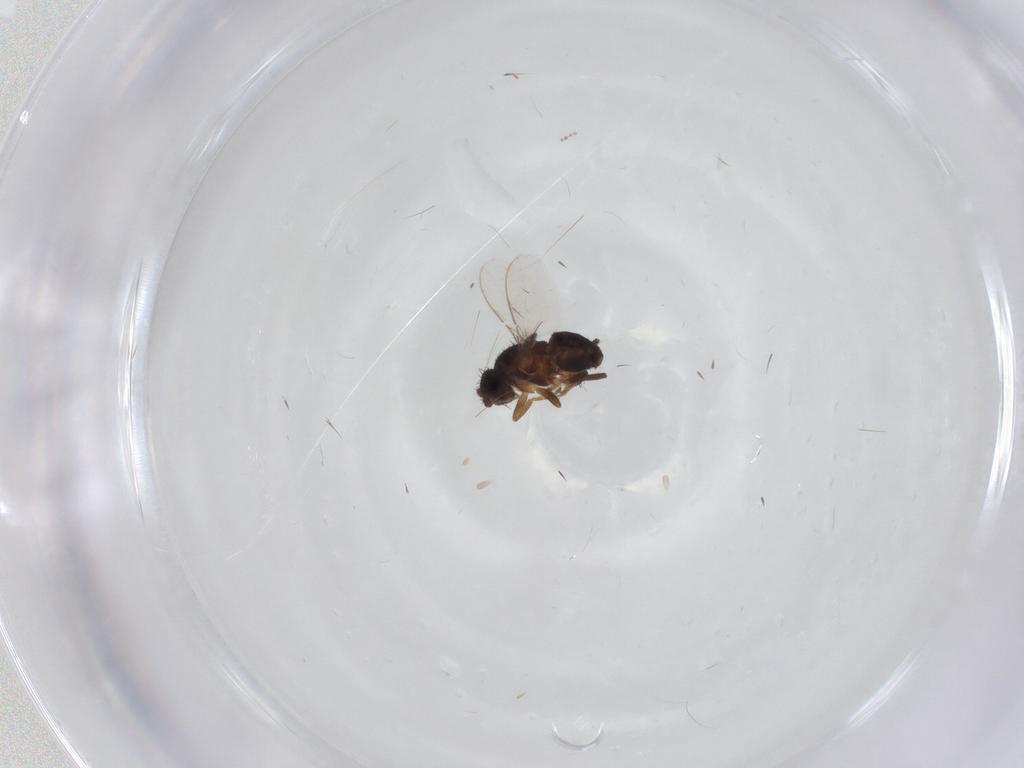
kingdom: Animalia
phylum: Arthropoda
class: Insecta
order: Diptera
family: Sphaeroceridae
